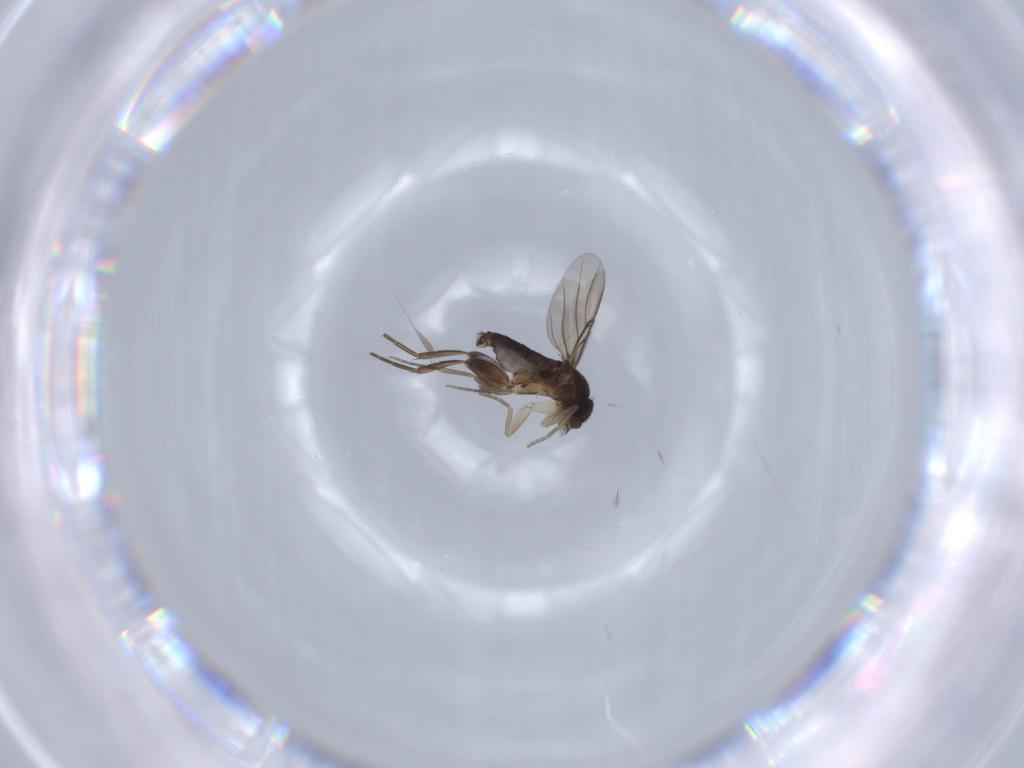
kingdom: Animalia
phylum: Arthropoda
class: Insecta
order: Diptera
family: Phoridae
